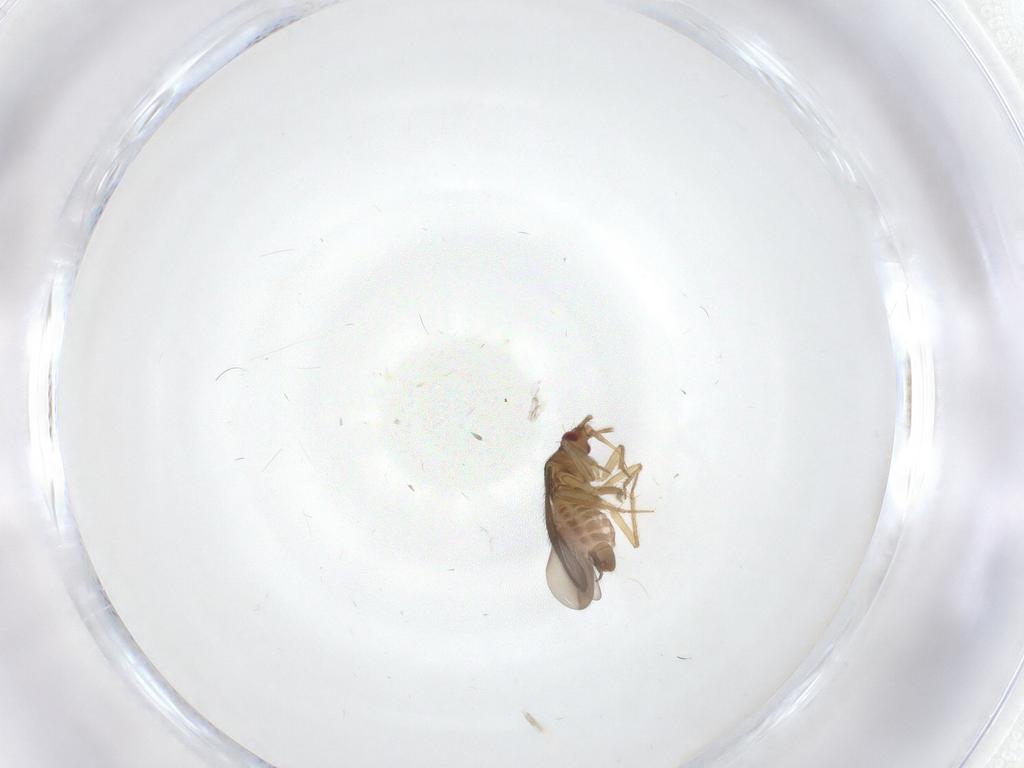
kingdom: Animalia
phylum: Arthropoda
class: Insecta
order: Hemiptera
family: Ceratocombidae
